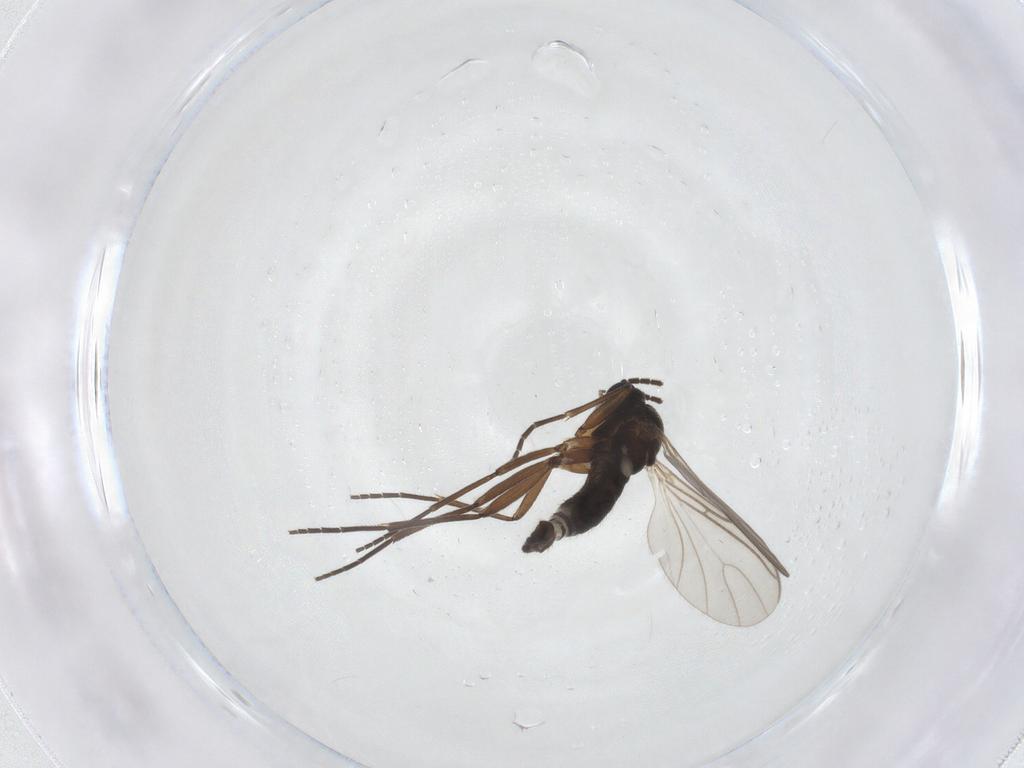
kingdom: Animalia
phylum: Arthropoda
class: Insecta
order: Diptera
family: Sciaridae
